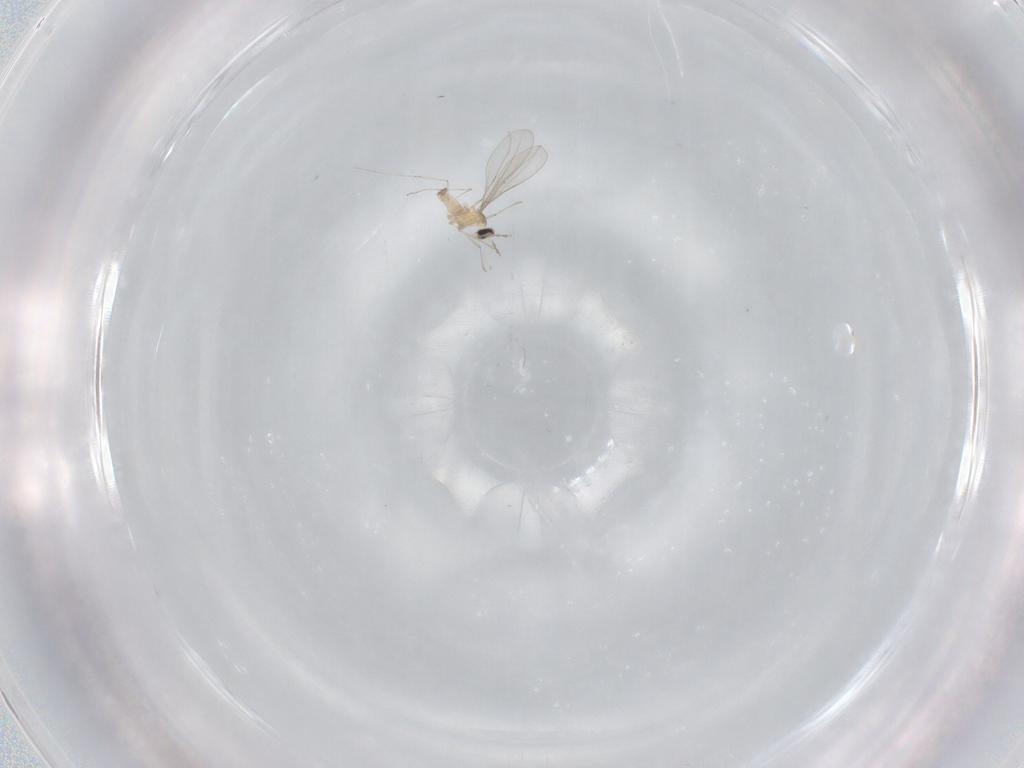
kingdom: Animalia
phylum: Arthropoda
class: Insecta
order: Diptera
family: Cecidomyiidae
